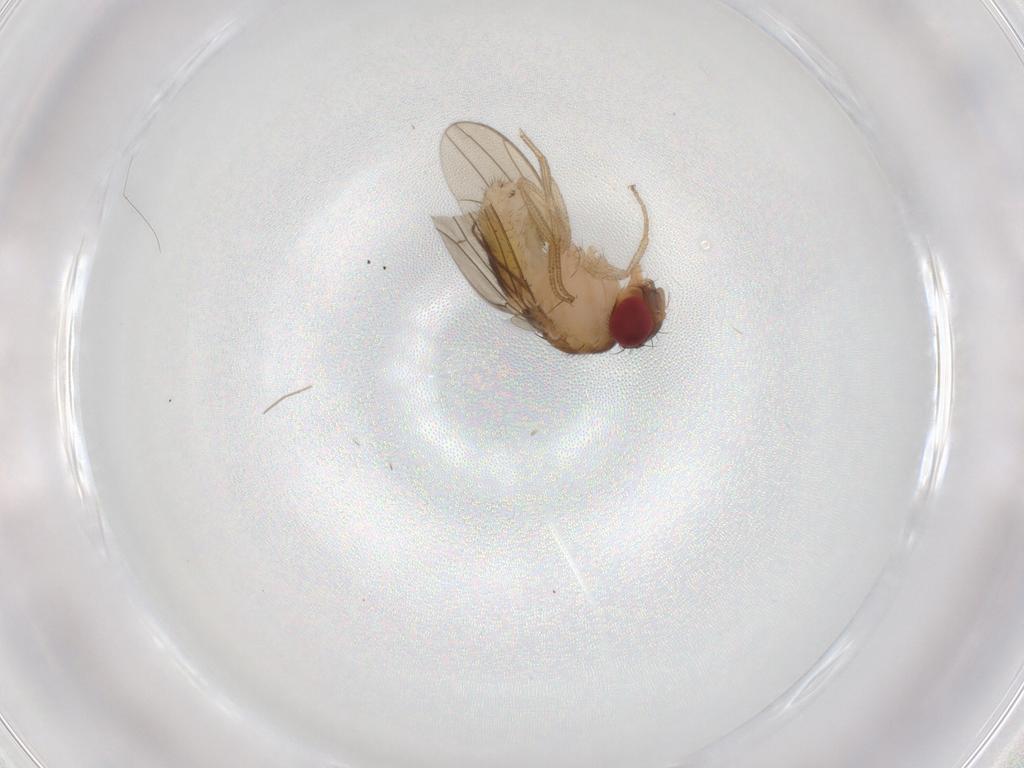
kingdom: Animalia
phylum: Arthropoda
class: Insecta
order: Diptera
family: Drosophilidae
